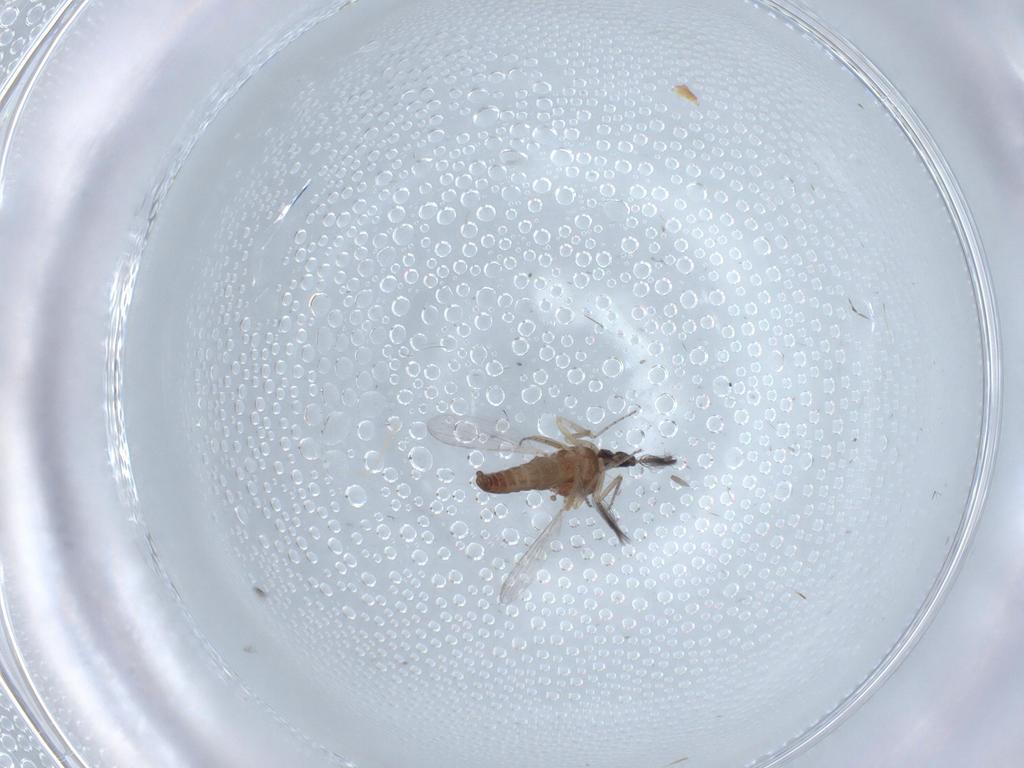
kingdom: Animalia
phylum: Arthropoda
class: Insecta
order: Diptera
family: Ceratopogonidae
